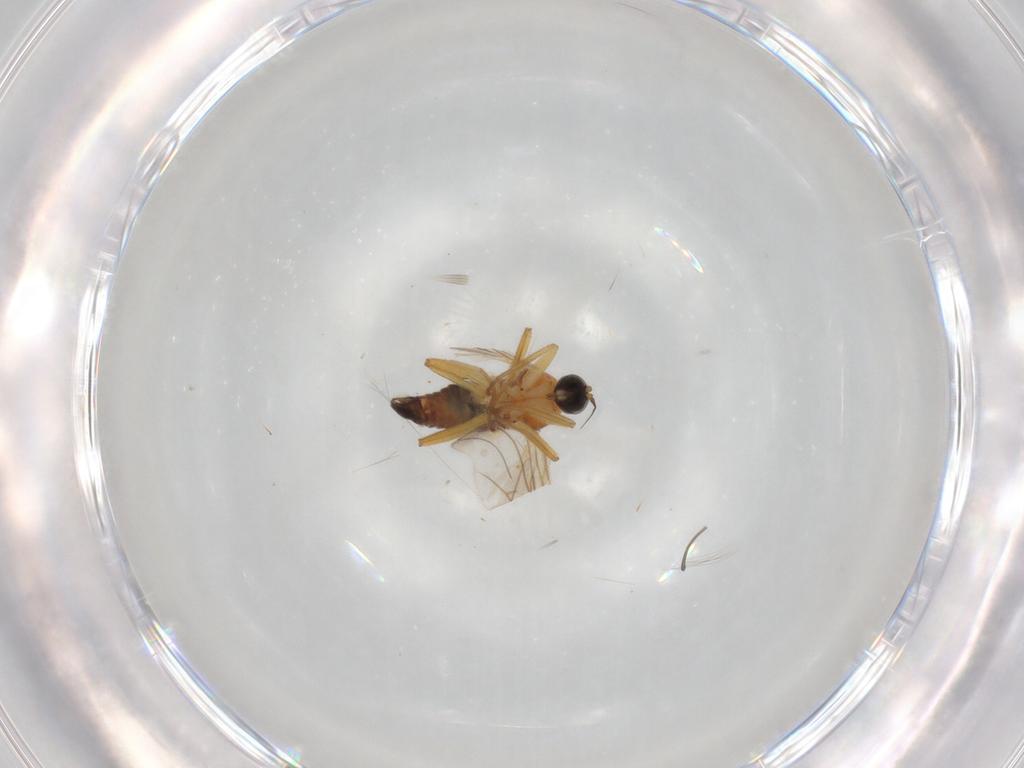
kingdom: Animalia
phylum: Arthropoda
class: Insecta
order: Diptera
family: Hybotidae
